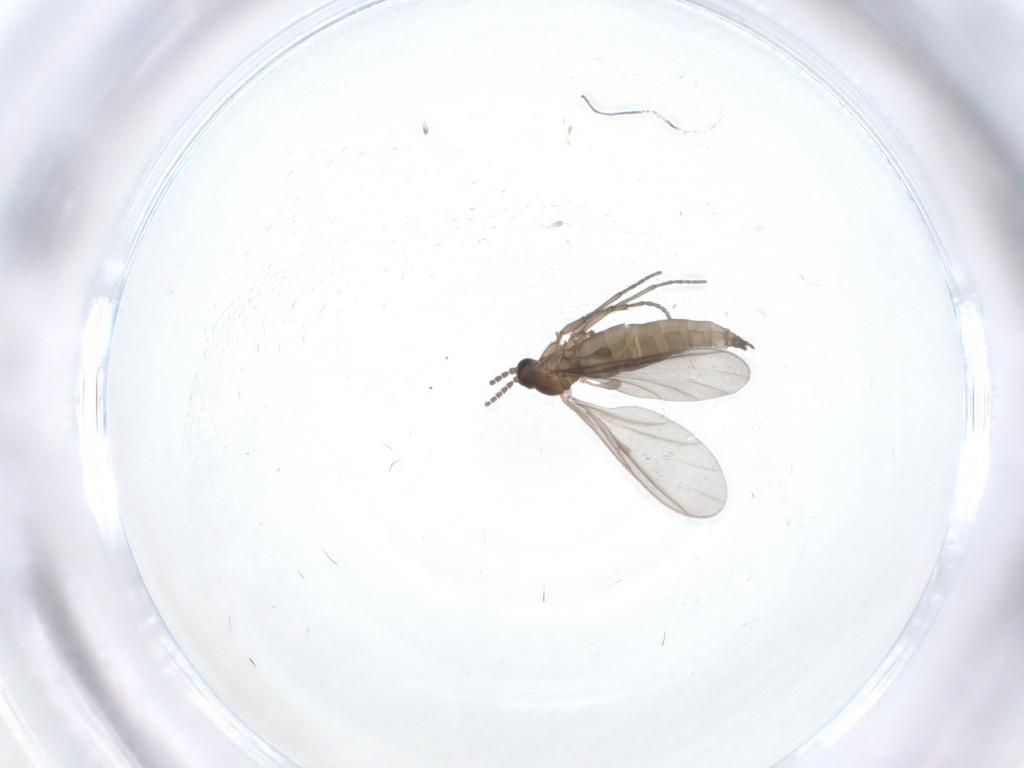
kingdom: Animalia
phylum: Arthropoda
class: Insecta
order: Diptera
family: Sciaridae
